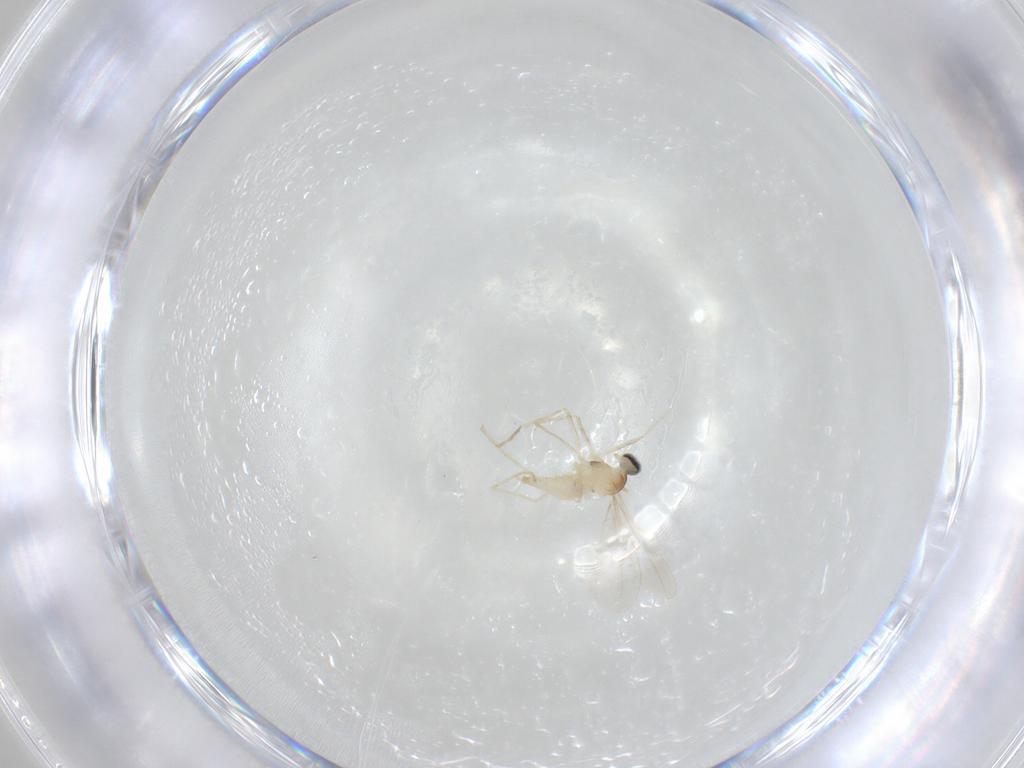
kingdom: Animalia
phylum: Arthropoda
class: Insecta
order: Diptera
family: Cecidomyiidae
